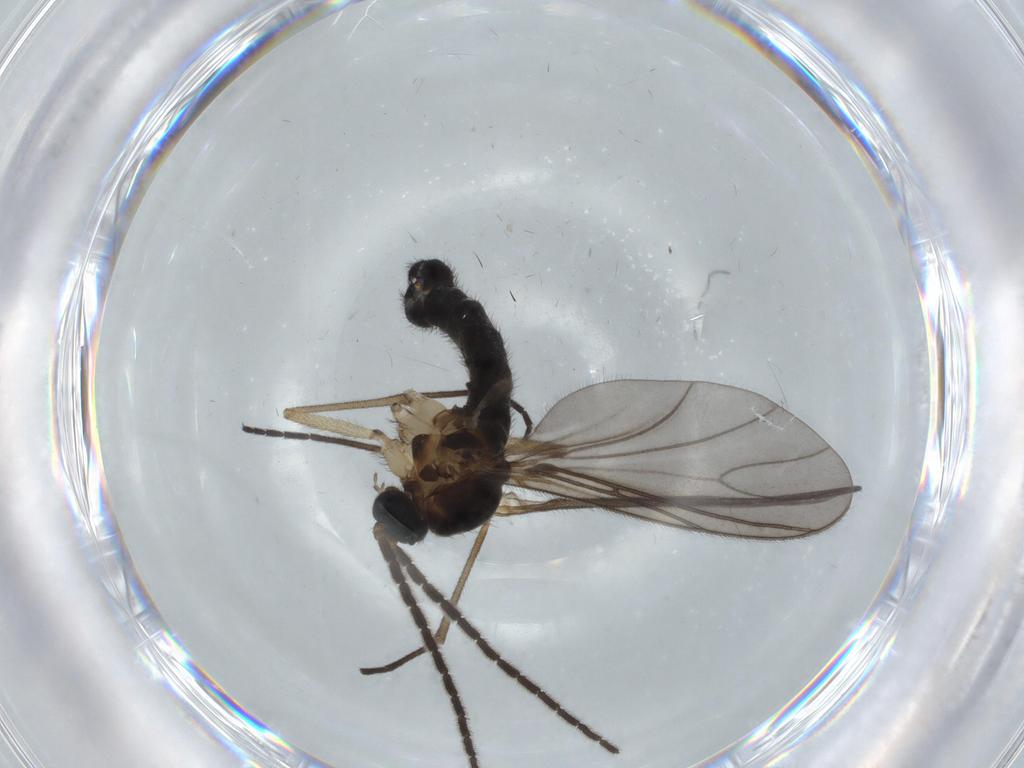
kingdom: Animalia
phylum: Arthropoda
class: Insecta
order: Diptera
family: Sciaridae
